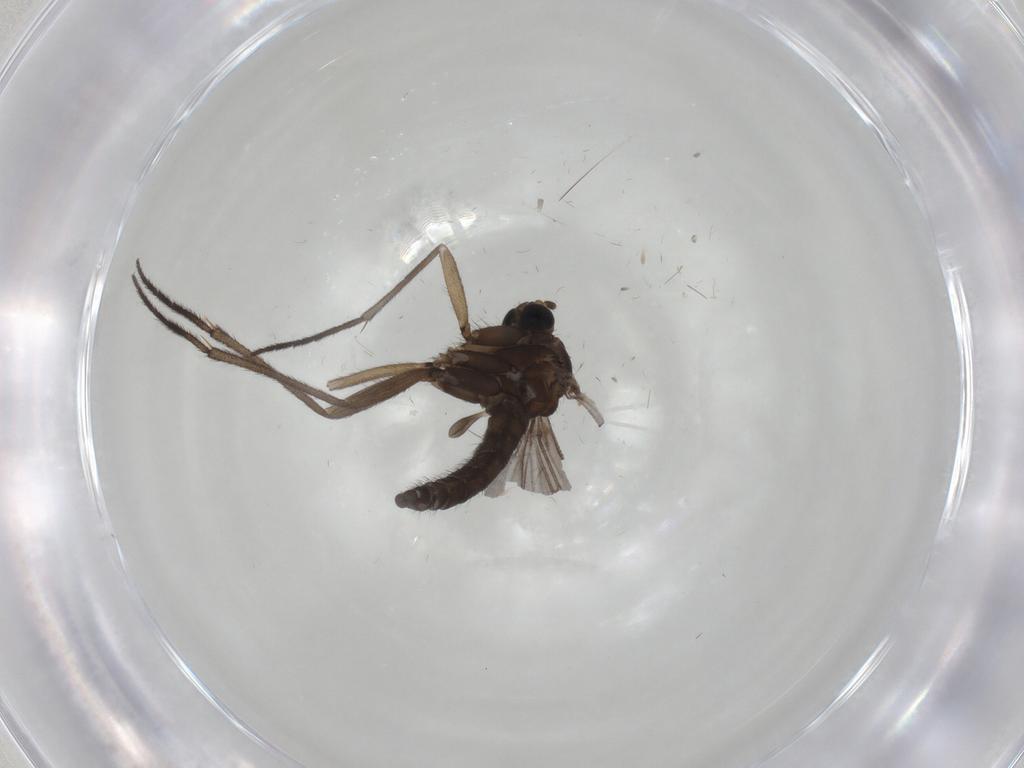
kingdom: Animalia
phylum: Arthropoda
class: Insecta
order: Diptera
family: Sciaridae
